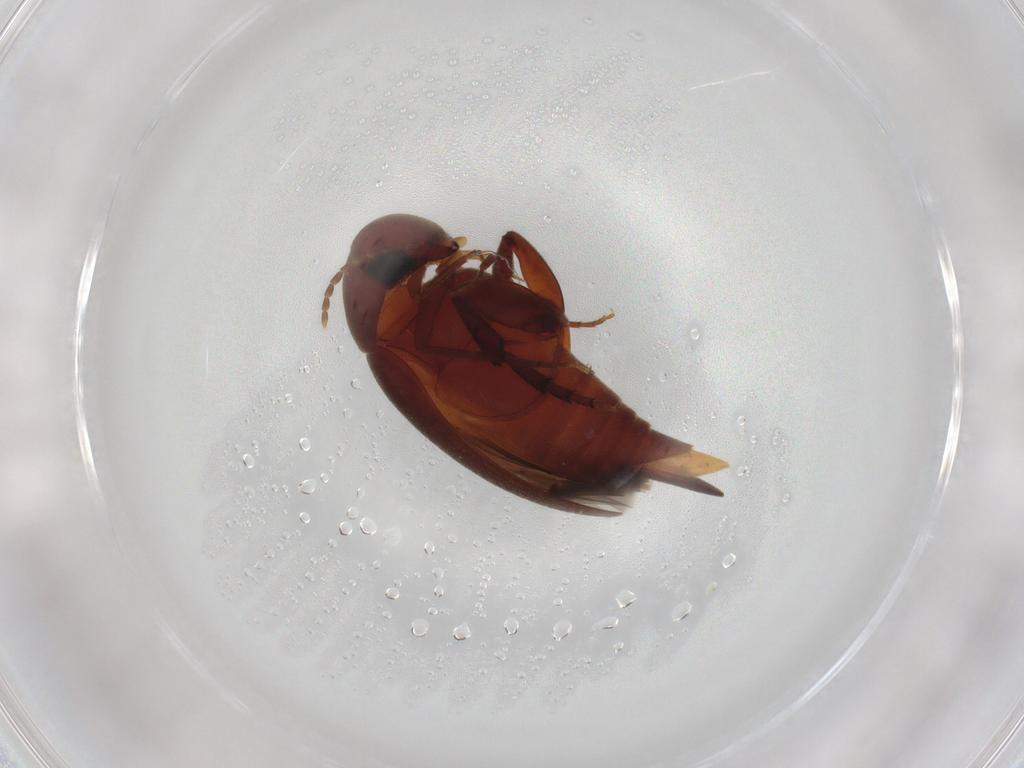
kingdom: Animalia
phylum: Arthropoda
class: Insecta
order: Coleoptera
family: Mordellidae
